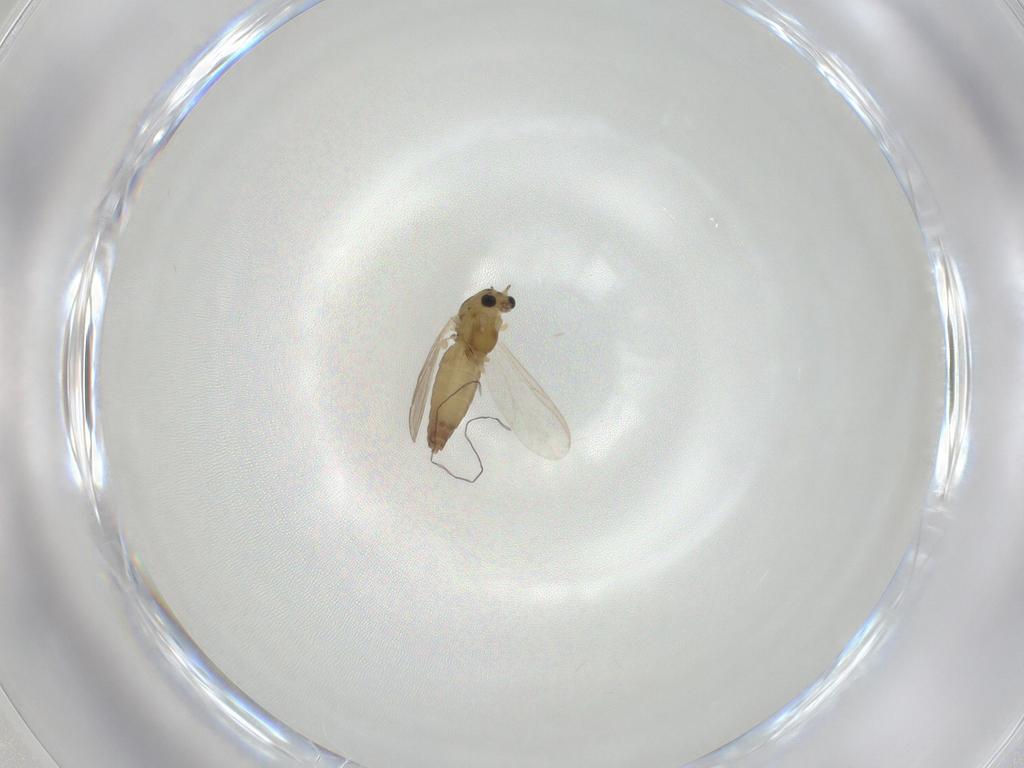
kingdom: Animalia
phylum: Arthropoda
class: Insecta
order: Diptera
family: Chironomidae
